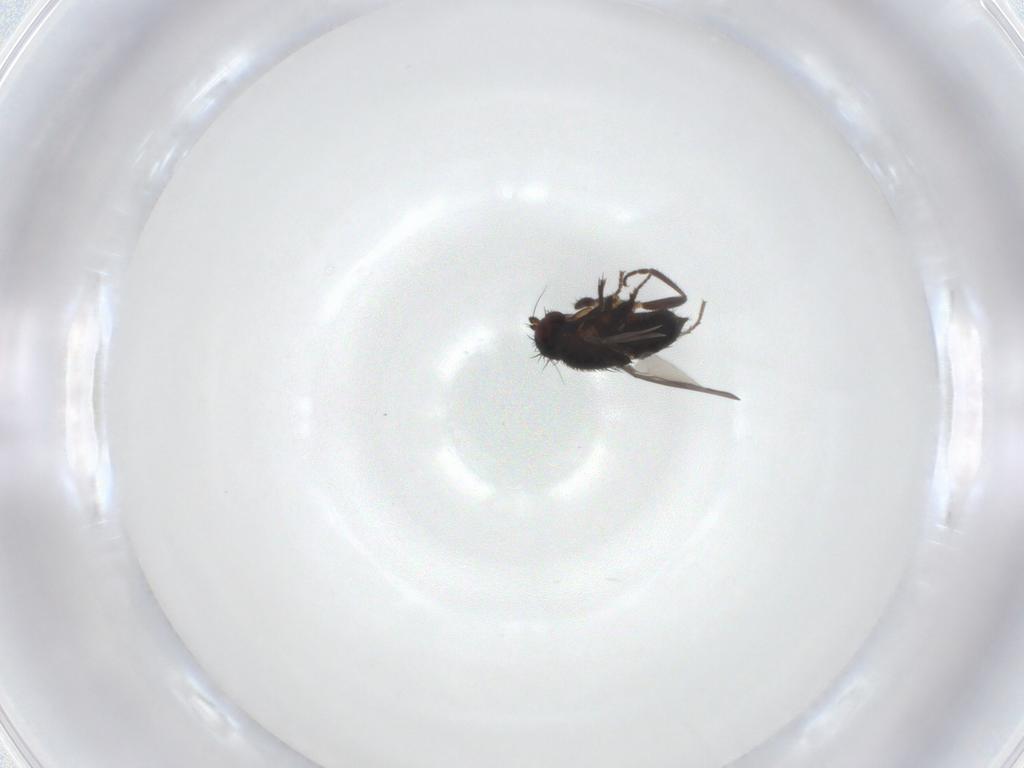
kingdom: Animalia
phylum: Arthropoda
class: Insecta
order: Diptera
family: Sphaeroceridae
